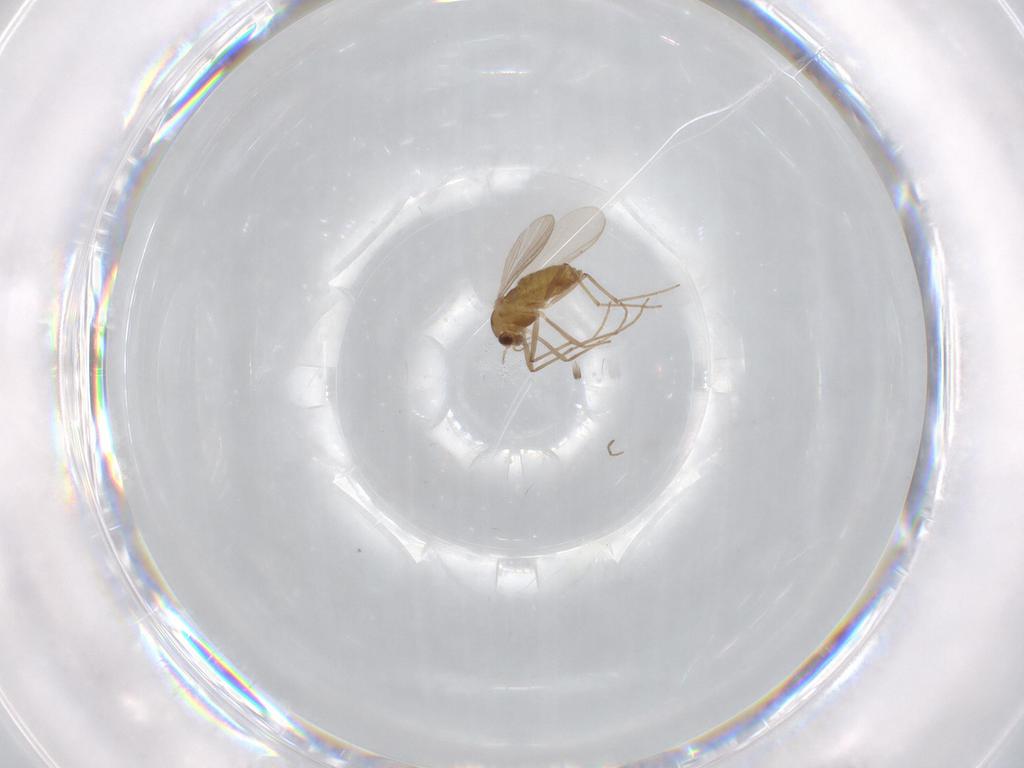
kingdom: Animalia
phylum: Arthropoda
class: Insecta
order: Diptera
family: Chironomidae
